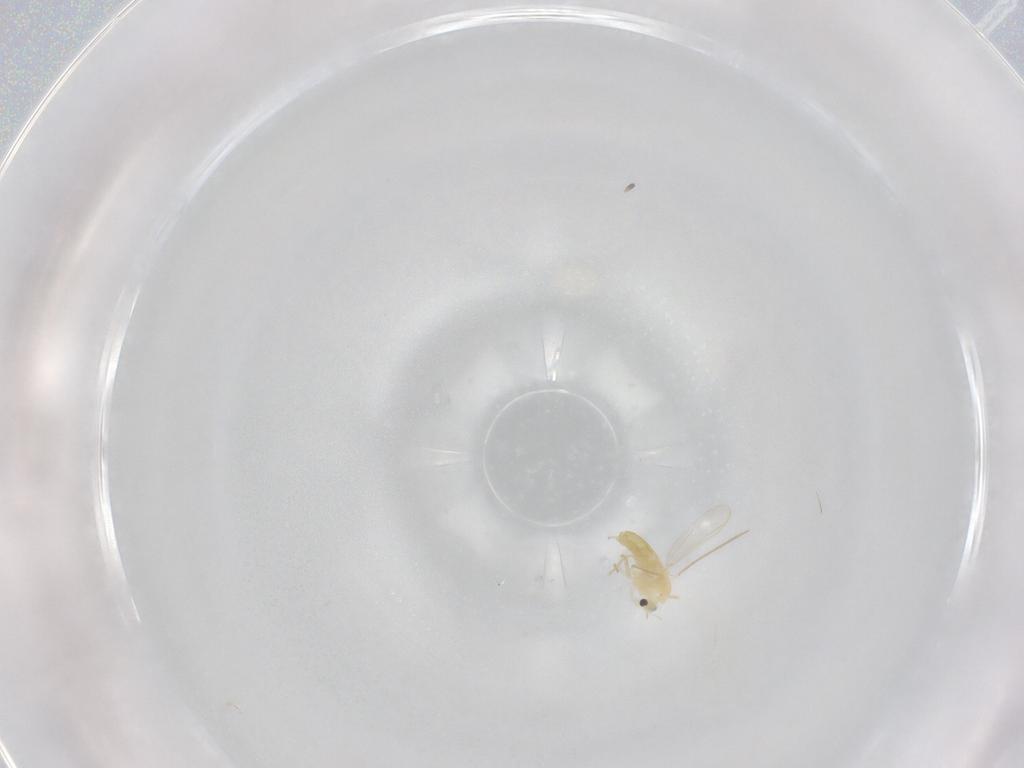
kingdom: Animalia
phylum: Arthropoda
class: Insecta
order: Diptera
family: Chironomidae
